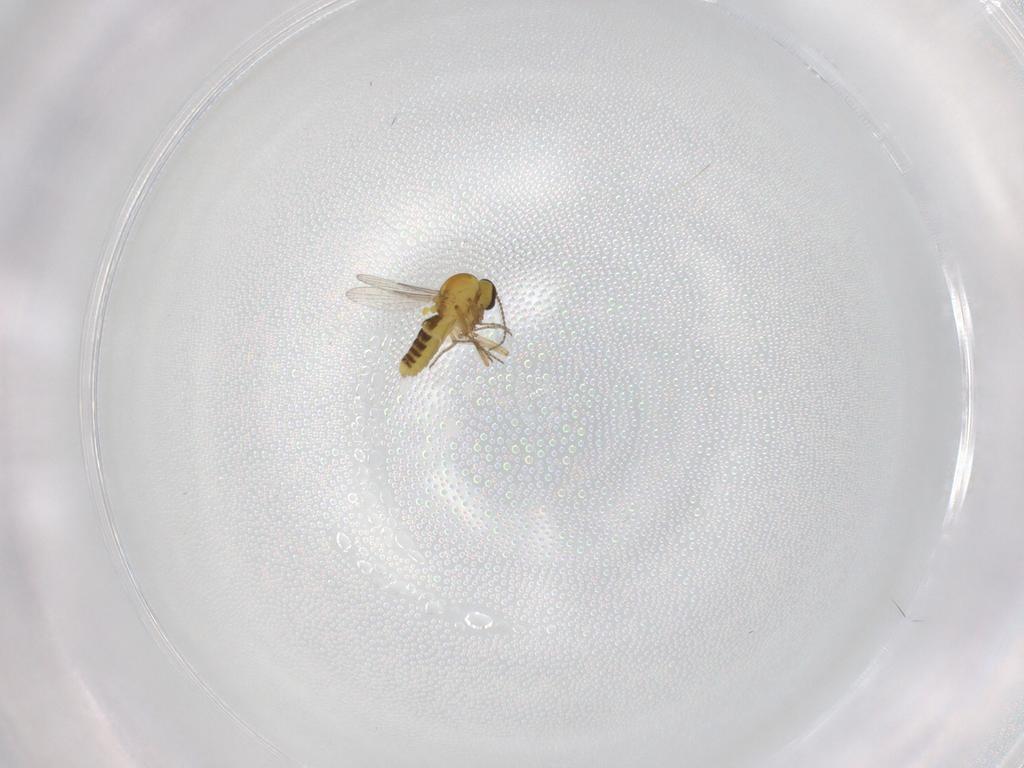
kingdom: Animalia
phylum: Arthropoda
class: Insecta
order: Diptera
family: Ceratopogonidae
